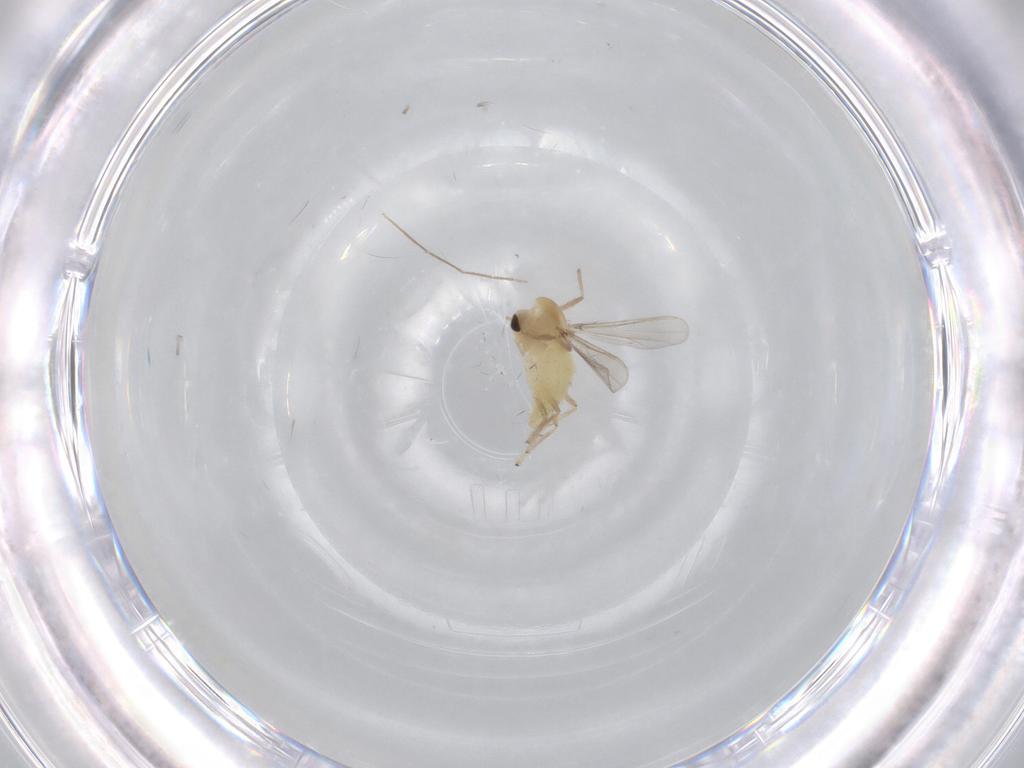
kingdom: Animalia
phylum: Arthropoda
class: Insecta
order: Diptera
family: Chironomidae
